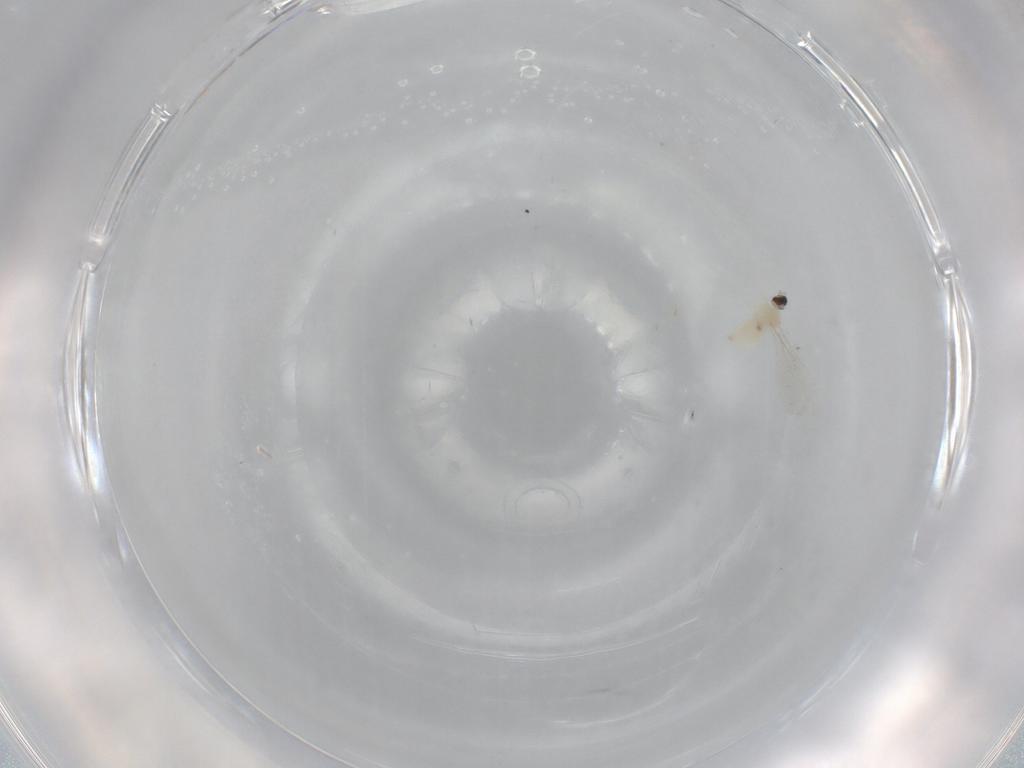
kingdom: Animalia
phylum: Arthropoda
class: Insecta
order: Diptera
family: Cecidomyiidae
